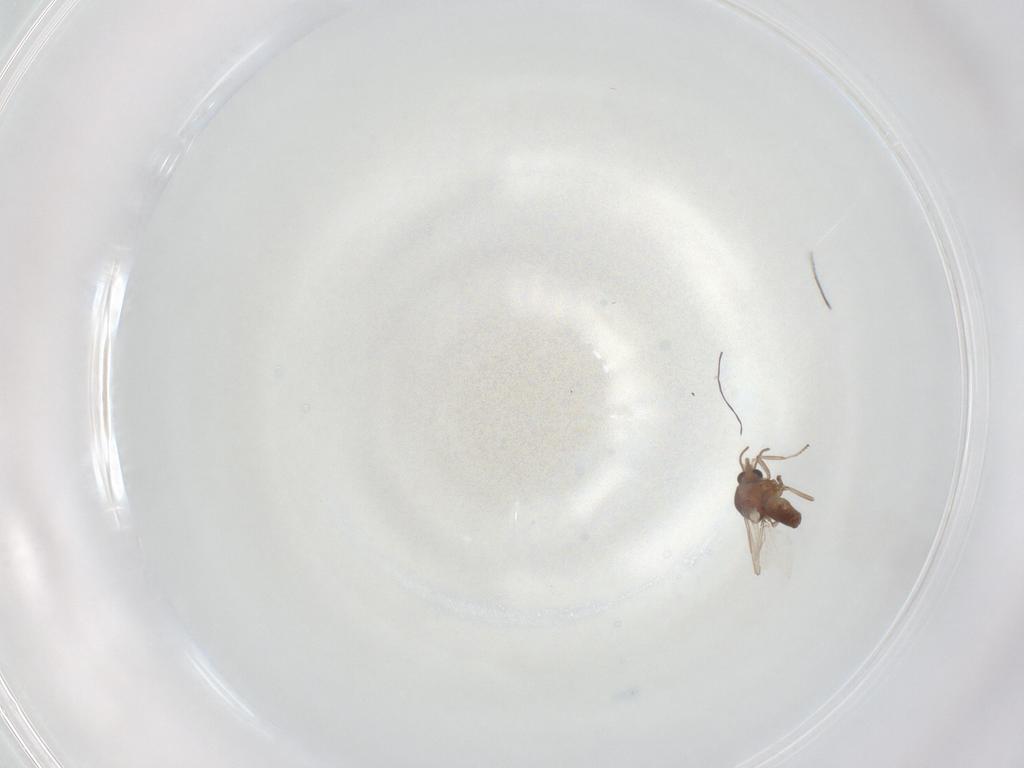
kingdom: Animalia
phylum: Arthropoda
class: Insecta
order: Diptera
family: Ceratopogonidae
